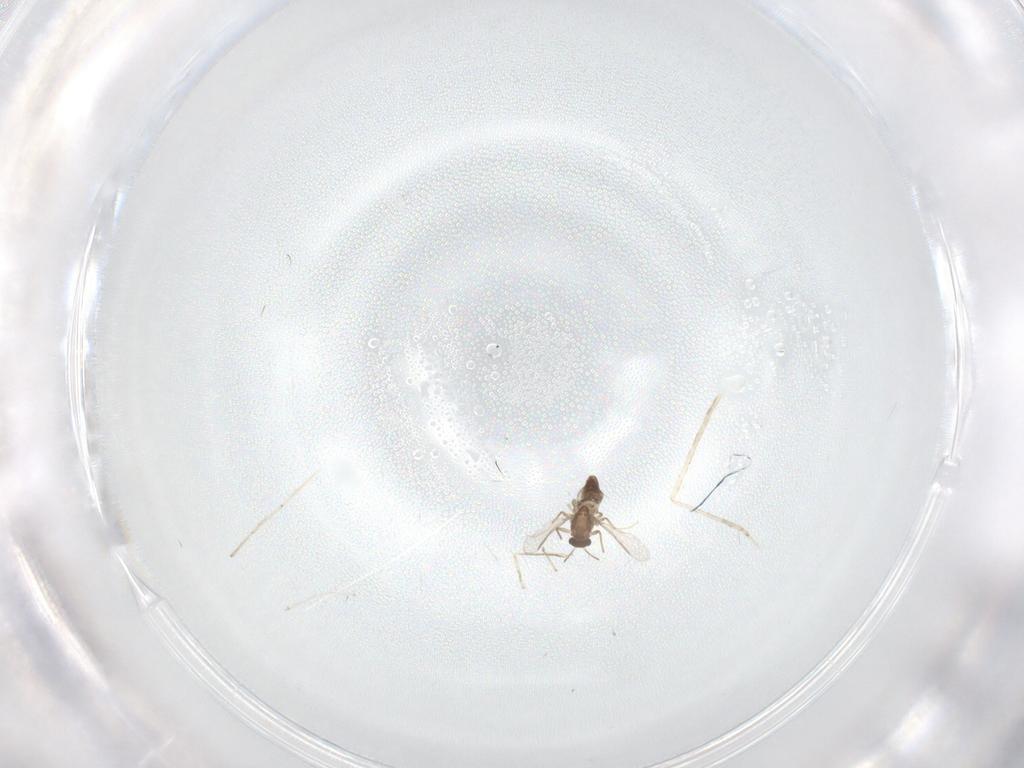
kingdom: Animalia
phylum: Arthropoda
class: Insecta
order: Diptera
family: Chironomidae
